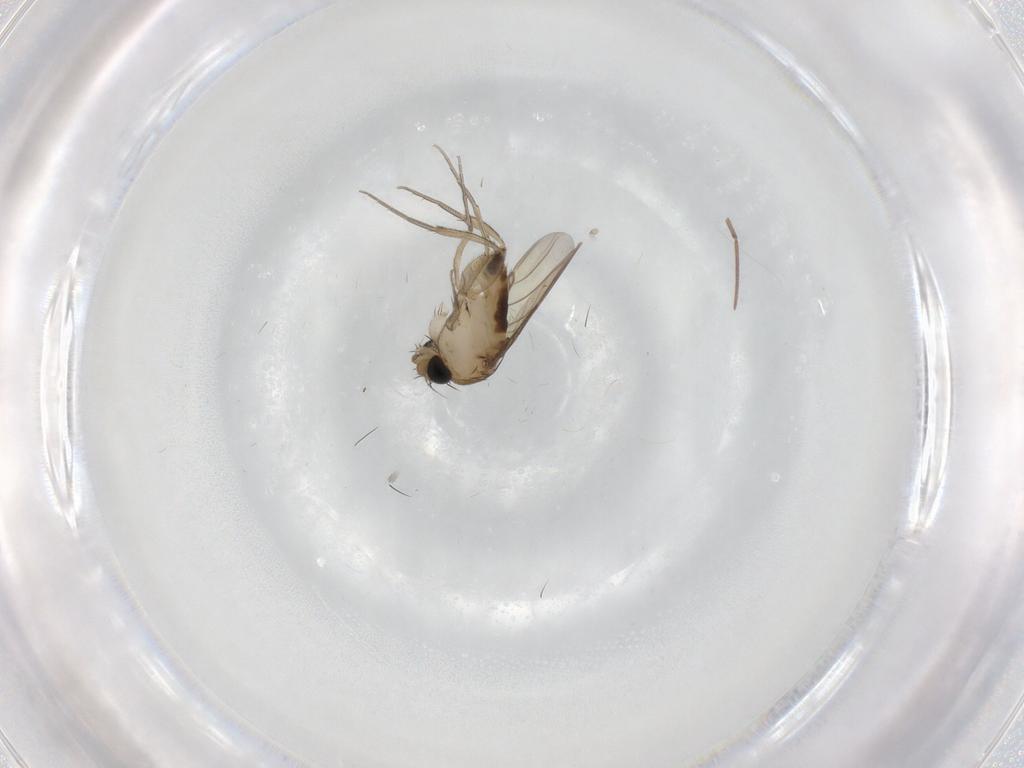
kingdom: Animalia
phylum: Arthropoda
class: Insecta
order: Diptera
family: Phoridae
